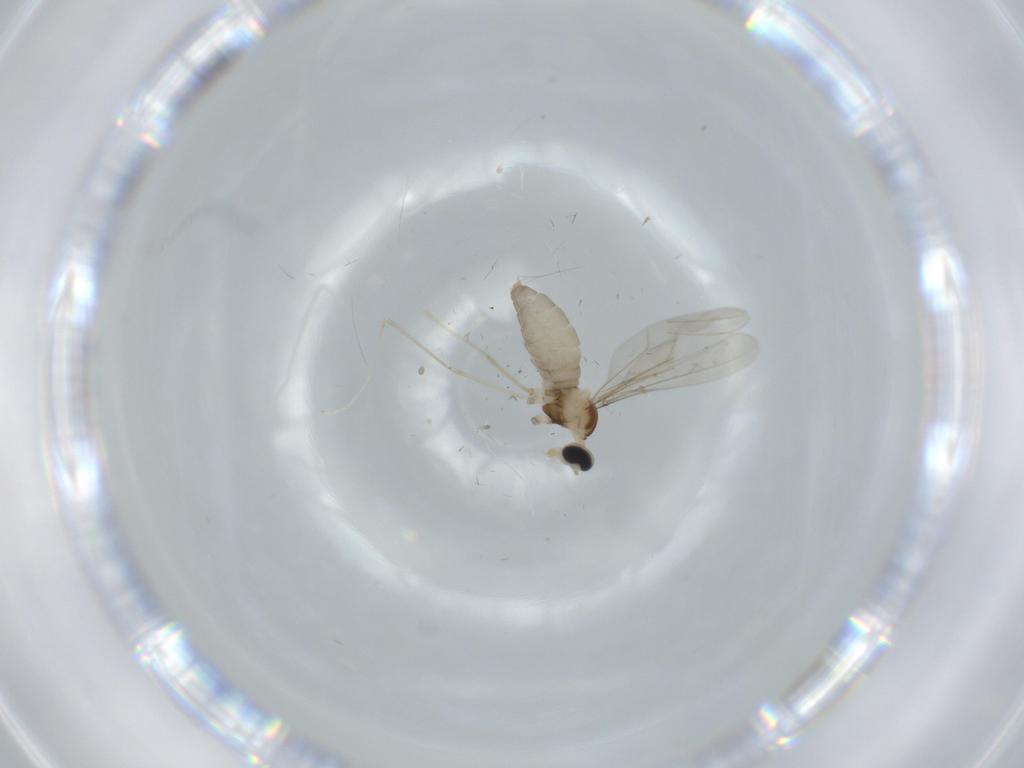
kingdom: Animalia
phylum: Arthropoda
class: Insecta
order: Diptera
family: Cecidomyiidae
